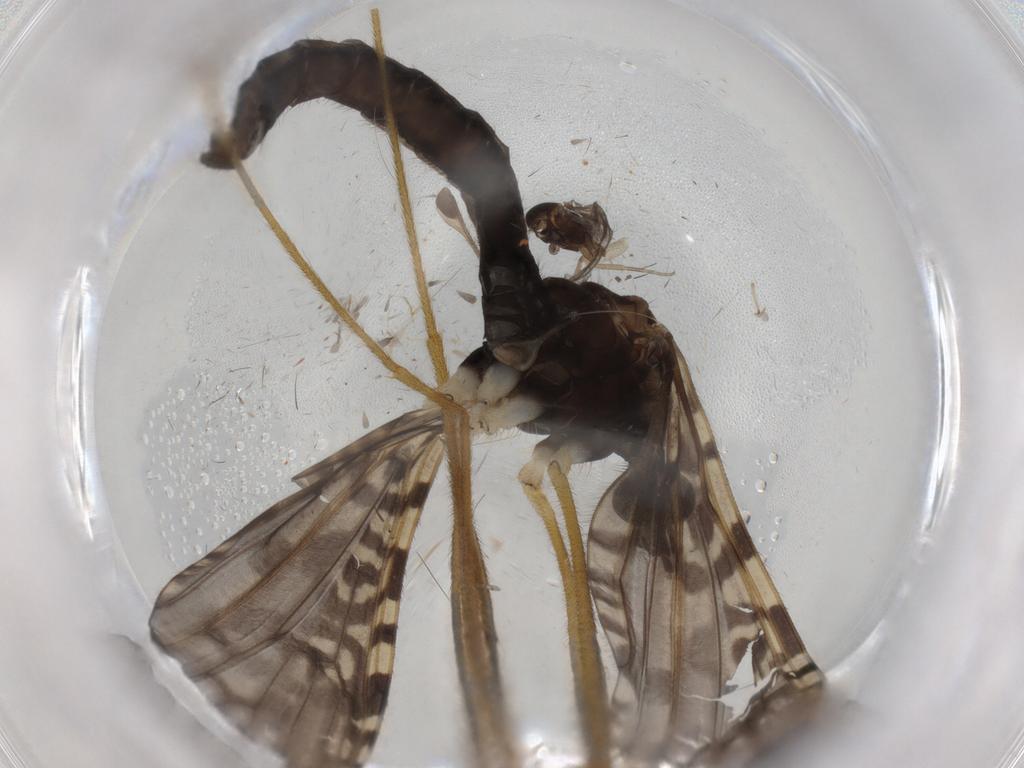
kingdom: Animalia
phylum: Arthropoda
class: Insecta
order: Diptera
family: Limoniidae
